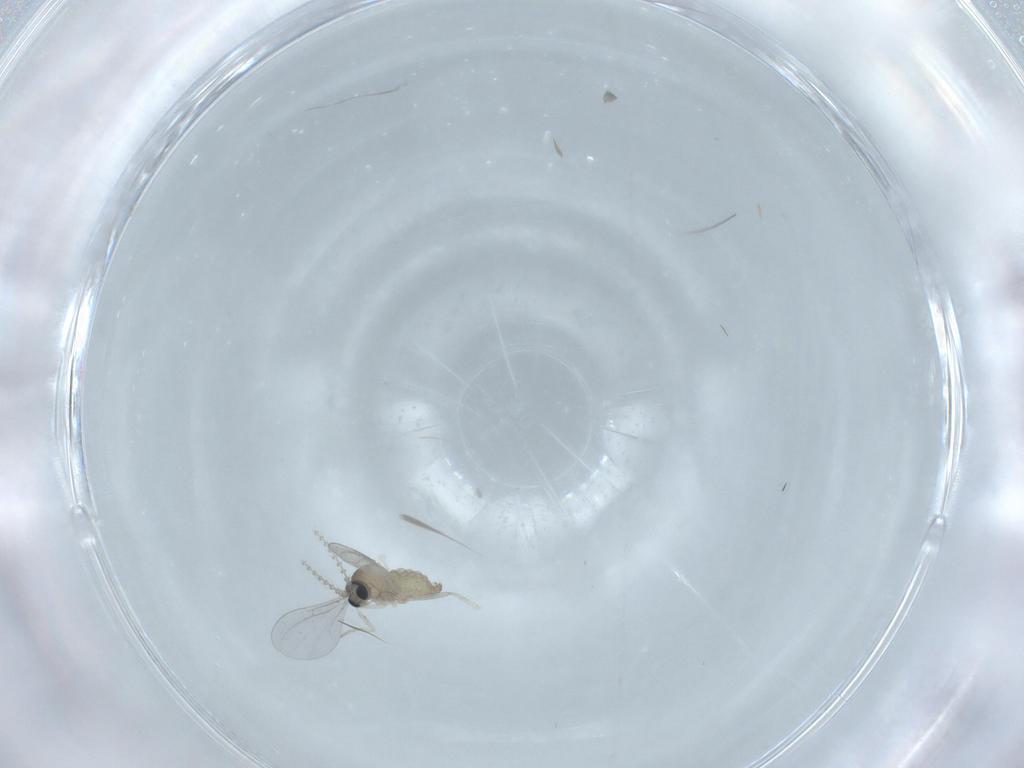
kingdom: Animalia
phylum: Arthropoda
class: Insecta
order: Diptera
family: Cecidomyiidae
